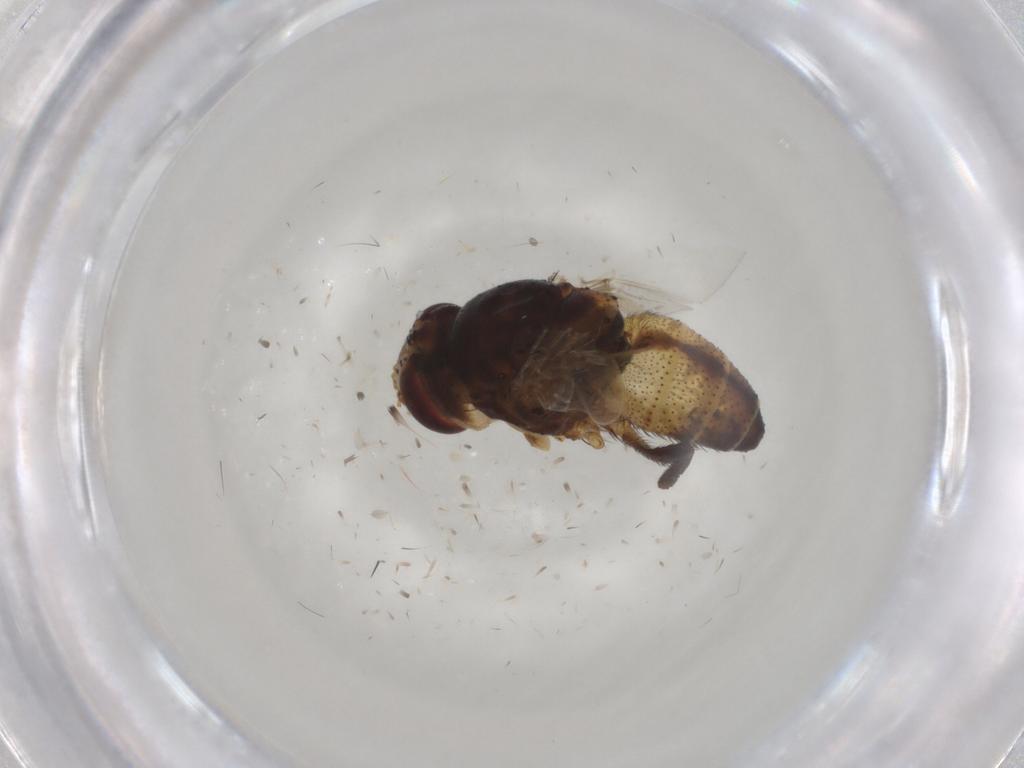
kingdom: Animalia
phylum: Arthropoda
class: Insecta
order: Diptera
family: Glossinidae
